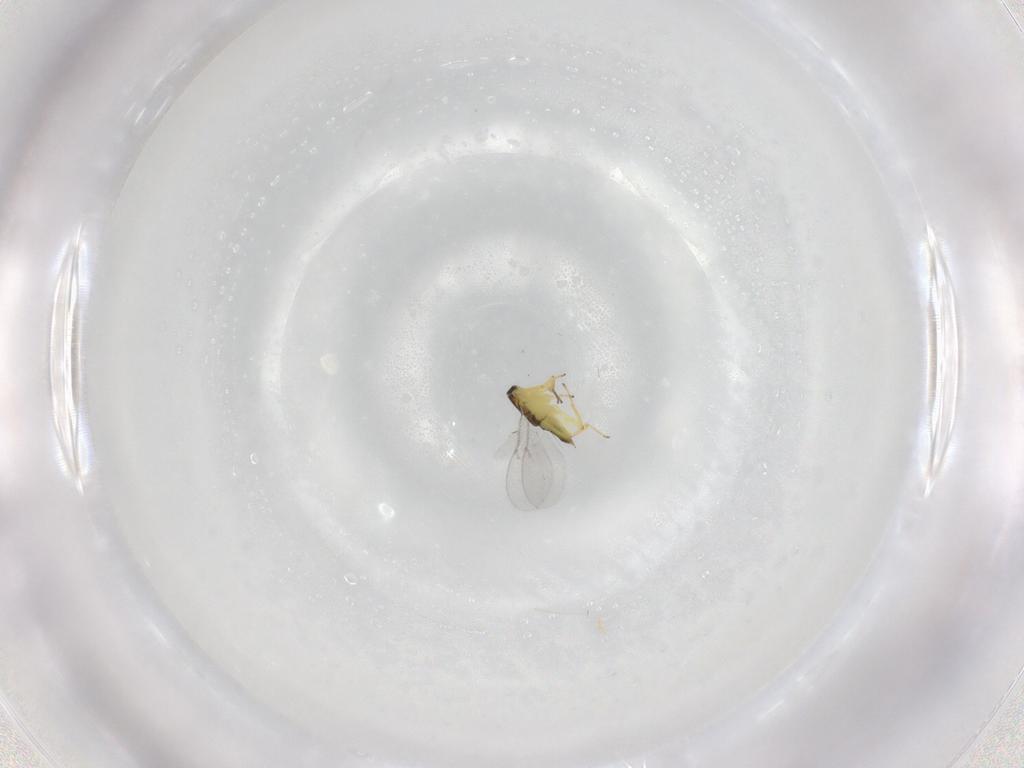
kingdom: Animalia
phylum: Arthropoda
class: Insecta
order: Hymenoptera
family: Encyrtidae
